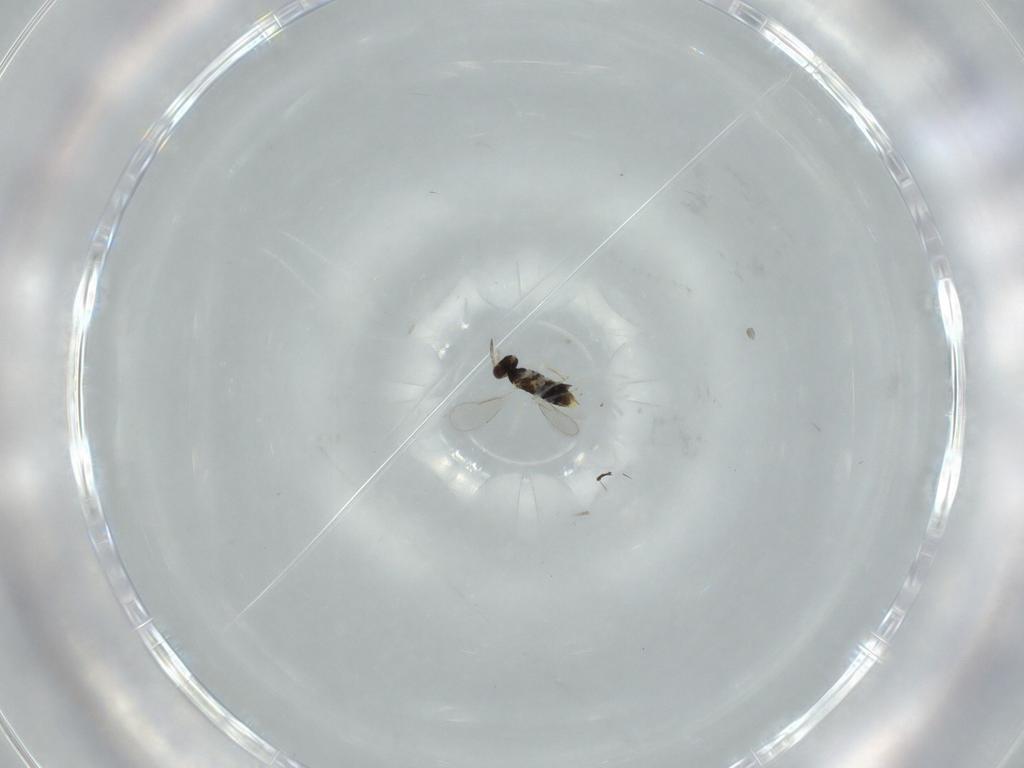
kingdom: Animalia
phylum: Arthropoda
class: Insecta
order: Hymenoptera
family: Aphelinidae
